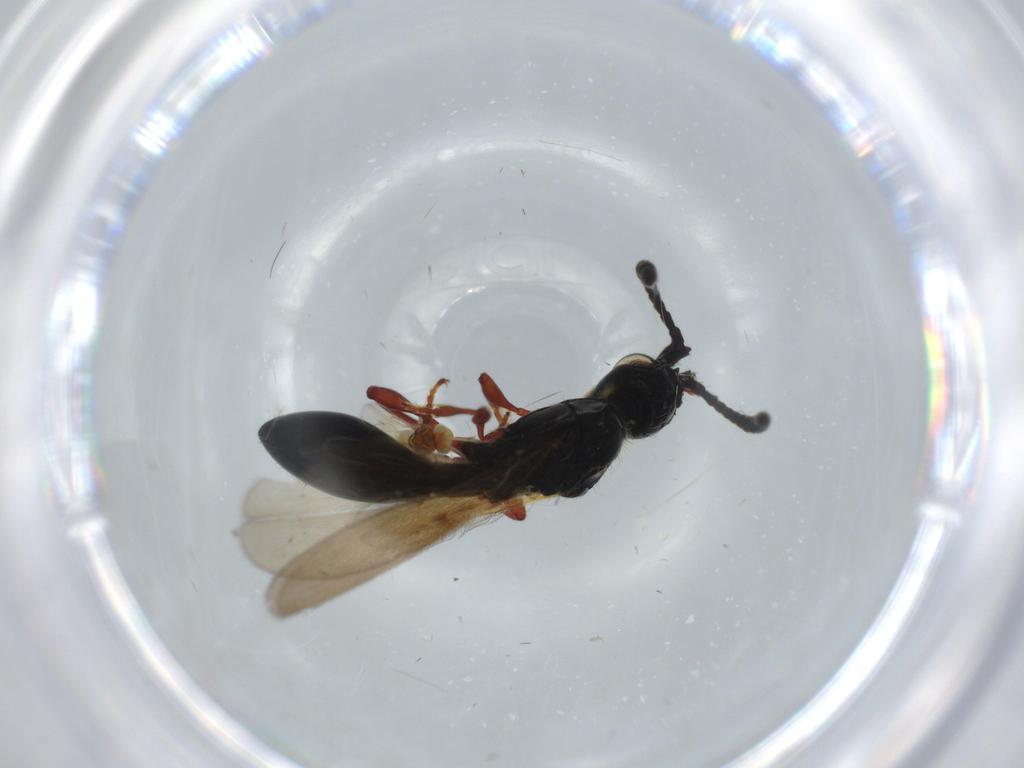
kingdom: Animalia
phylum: Arthropoda
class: Insecta
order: Hymenoptera
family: Diapriidae
